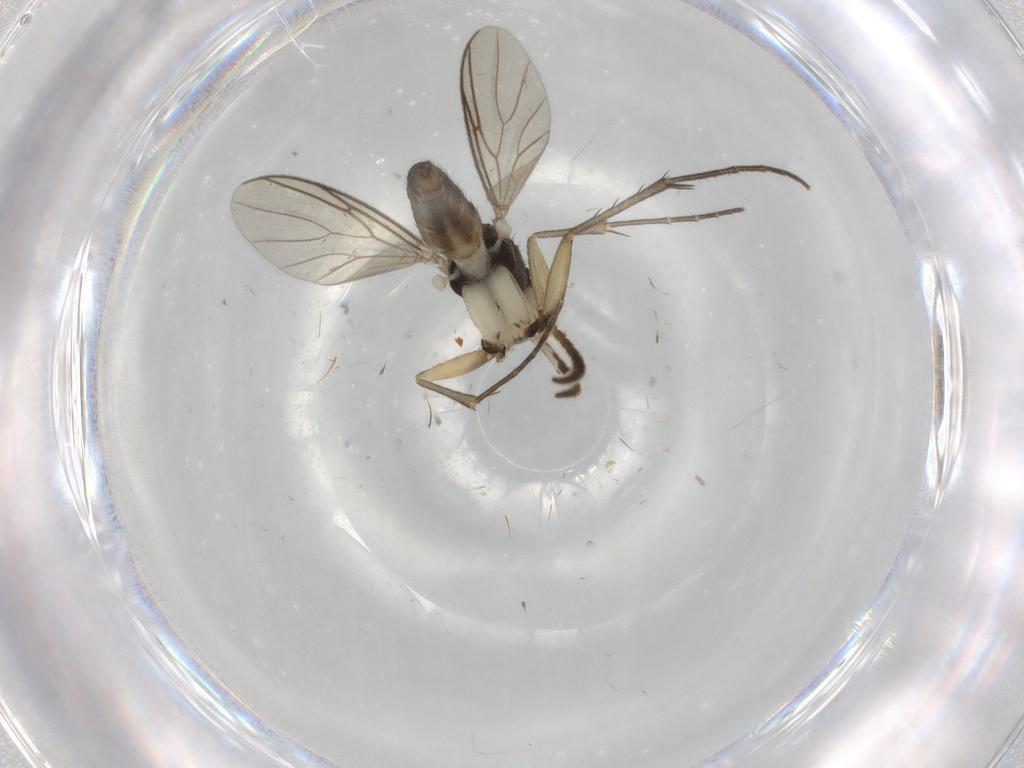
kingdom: Animalia
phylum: Arthropoda
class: Insecta
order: Diptera
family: Mycetophilidae
